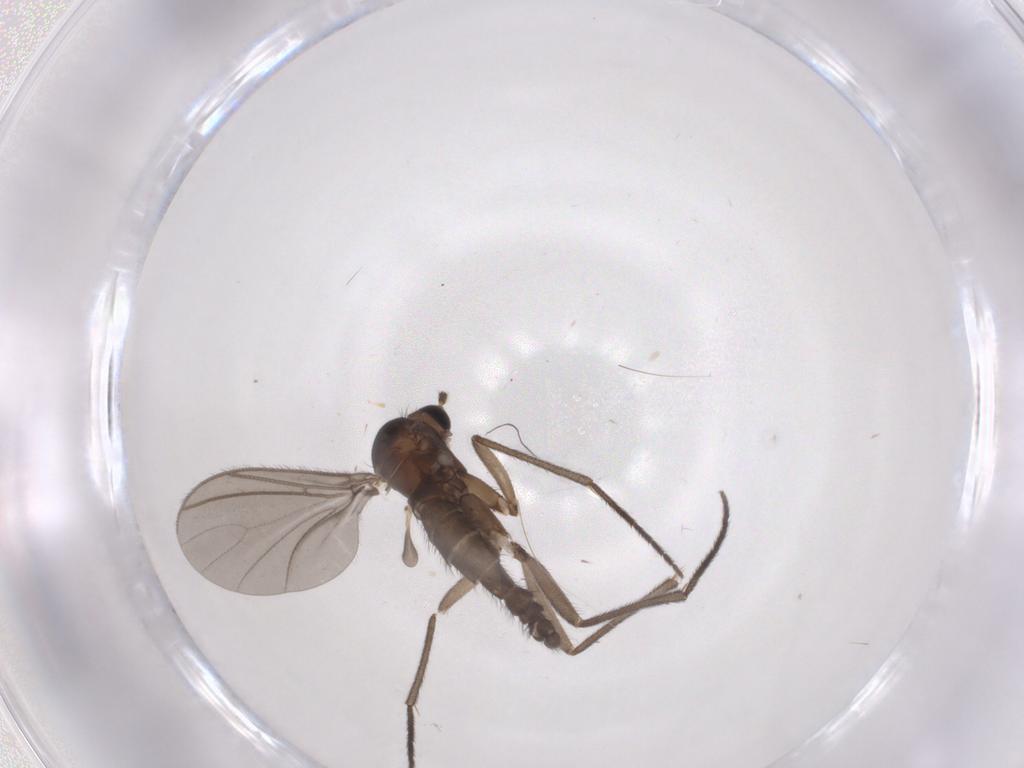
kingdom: Animalia
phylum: Arthropoda
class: Insecta
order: Diptera
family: Sciaridae
